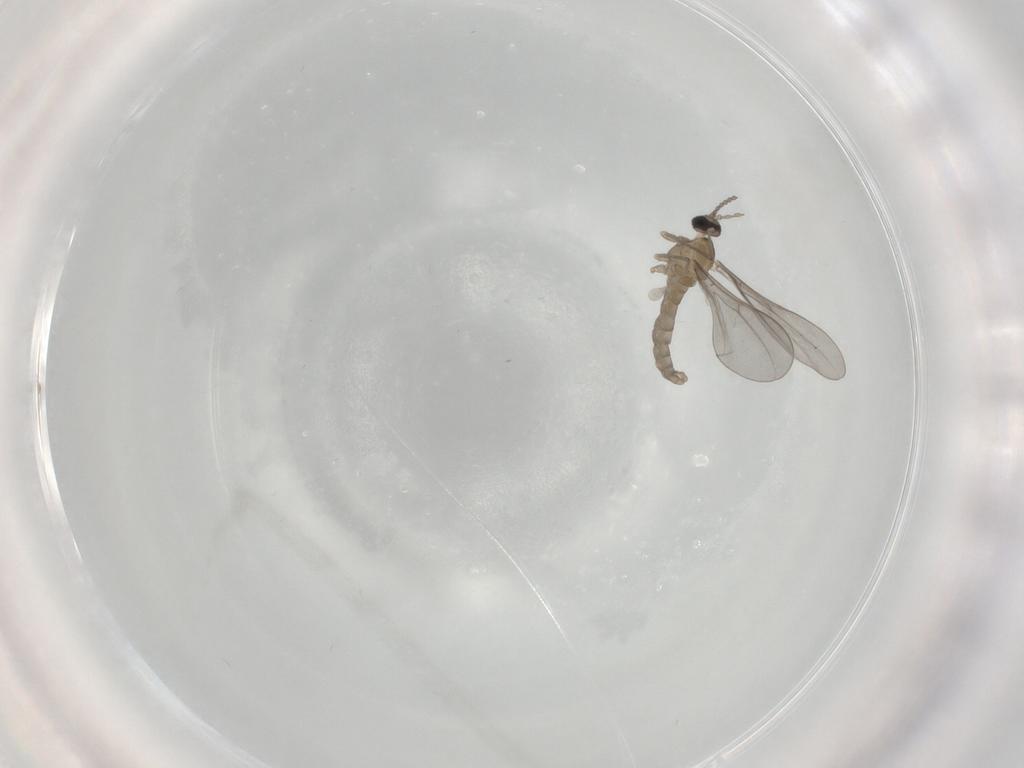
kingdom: Animalia
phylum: Arthropoda
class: Insecta
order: Diptera
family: Cecidomyiidae
